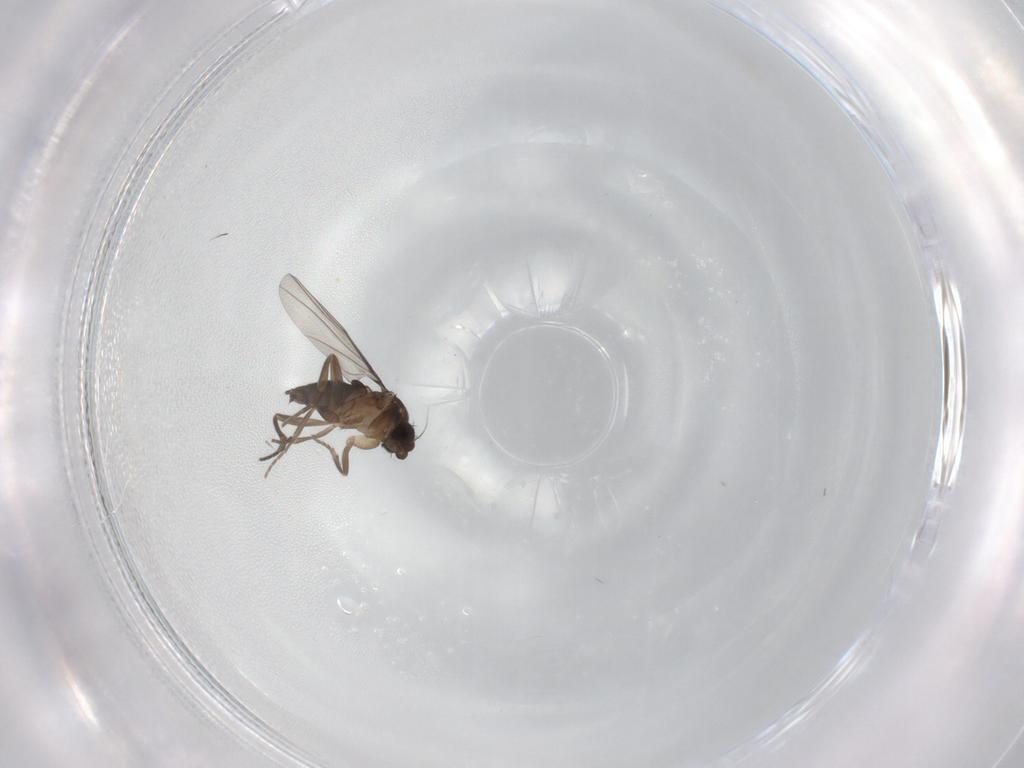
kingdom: Animalia
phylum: Arthropoda
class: Insecta
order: Diptera
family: Phoridae
